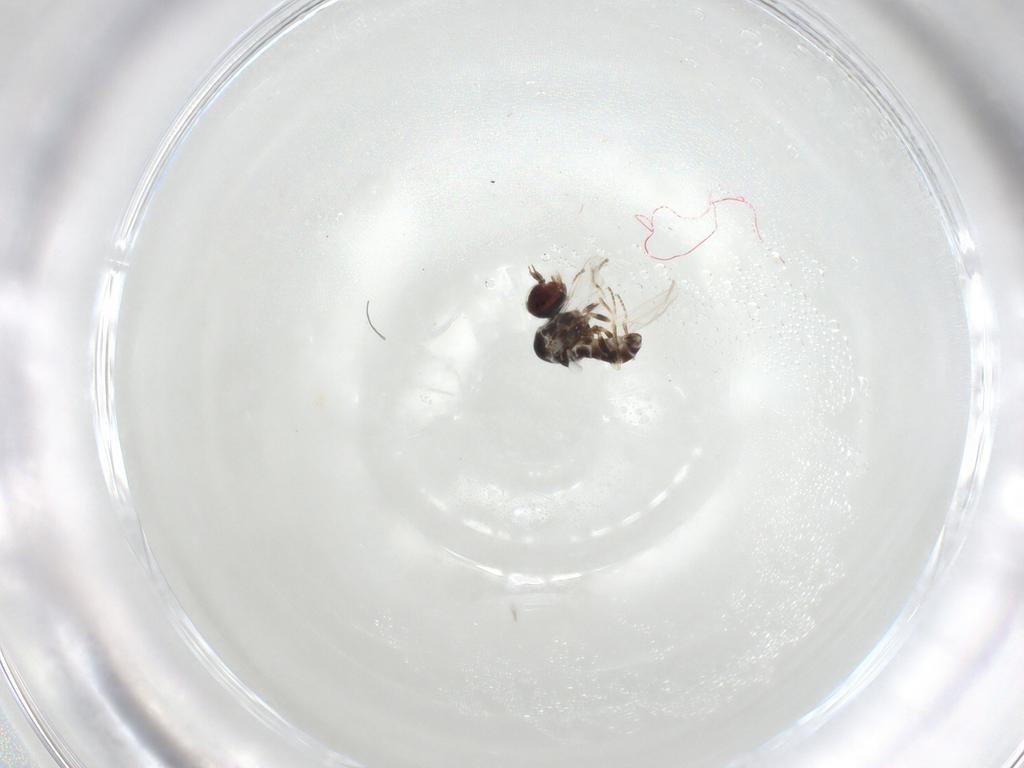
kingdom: Animalia
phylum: Arthropoda
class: Insecta
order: Diptera
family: Bombyliidae
